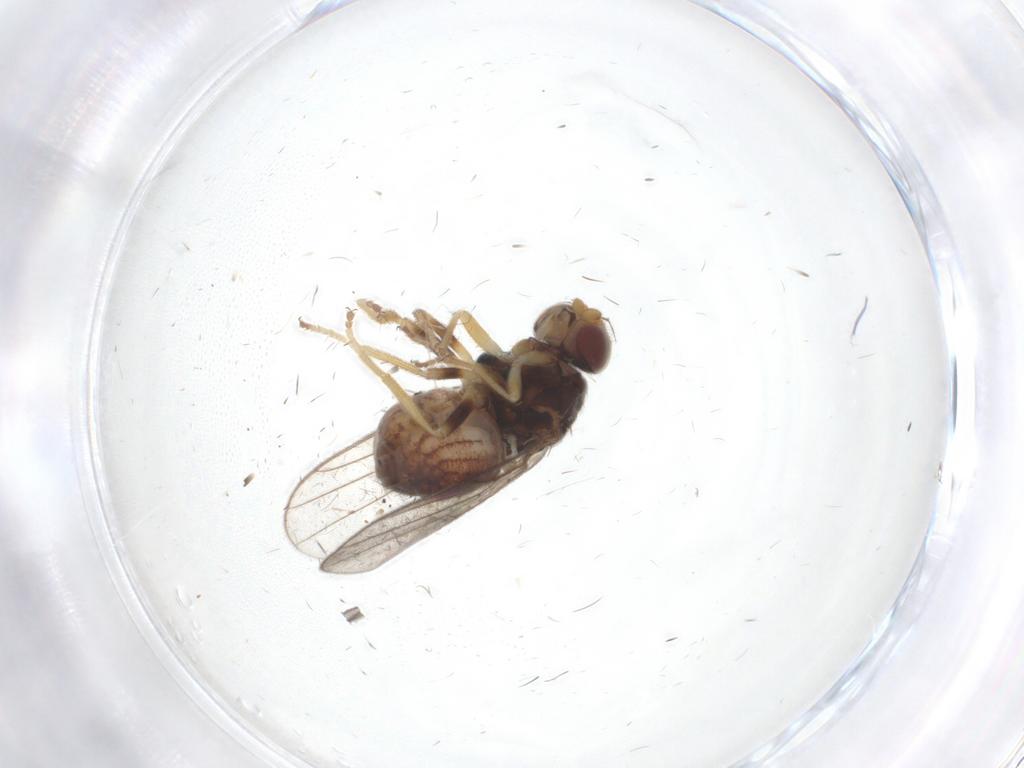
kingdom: Animalia
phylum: Arthropoda
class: Insecta
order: Diptera
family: Chloropidae
